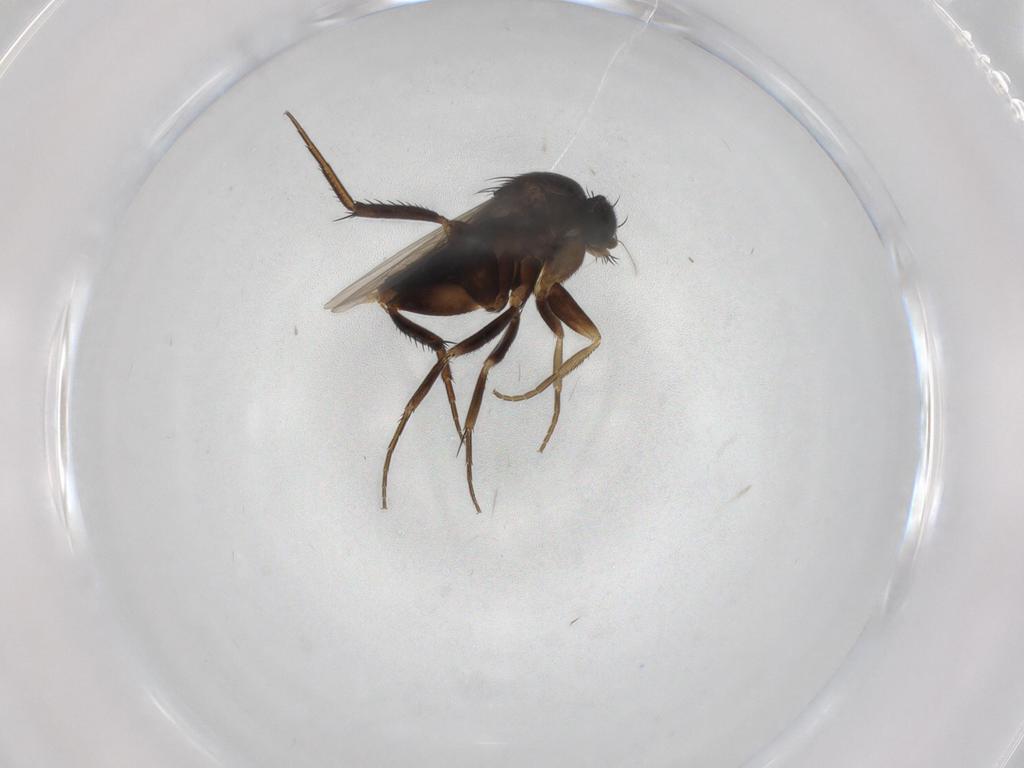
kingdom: Animalia
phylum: Arthropoda
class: Insecta
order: Diptera
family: Phoridae
